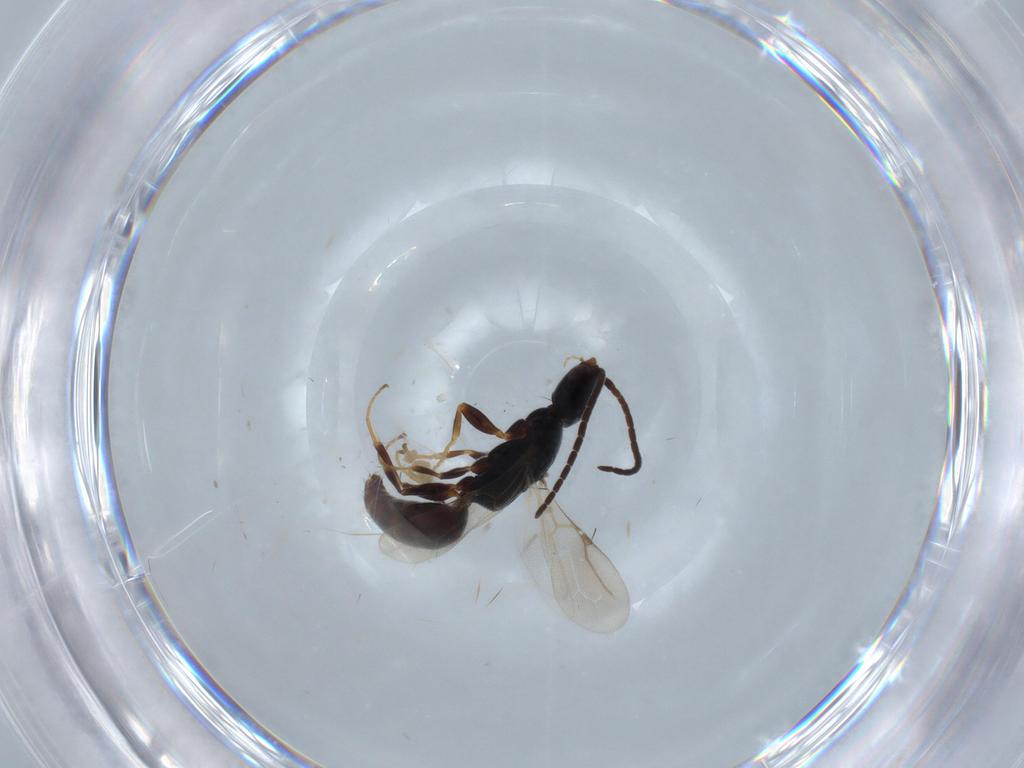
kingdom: Animalia
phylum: Arthropoda
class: Insecta
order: Hymenoptera
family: Bethylidae
